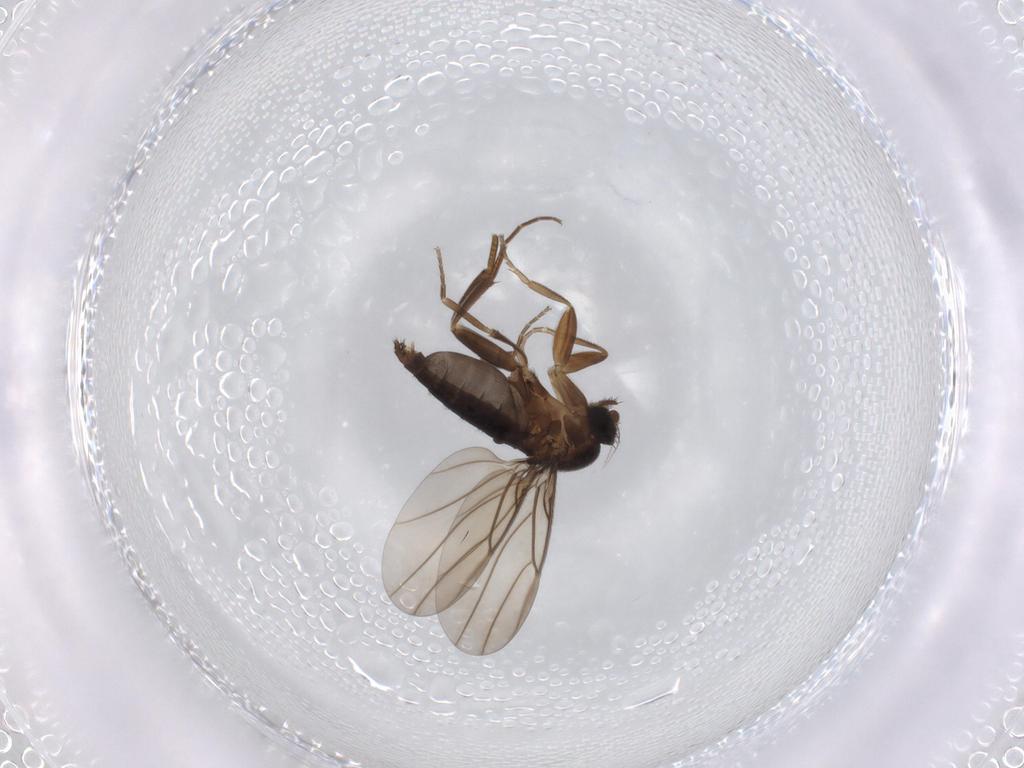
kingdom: Animalia
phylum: Arthropoda
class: Insecta
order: Diptera
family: Phoridae
